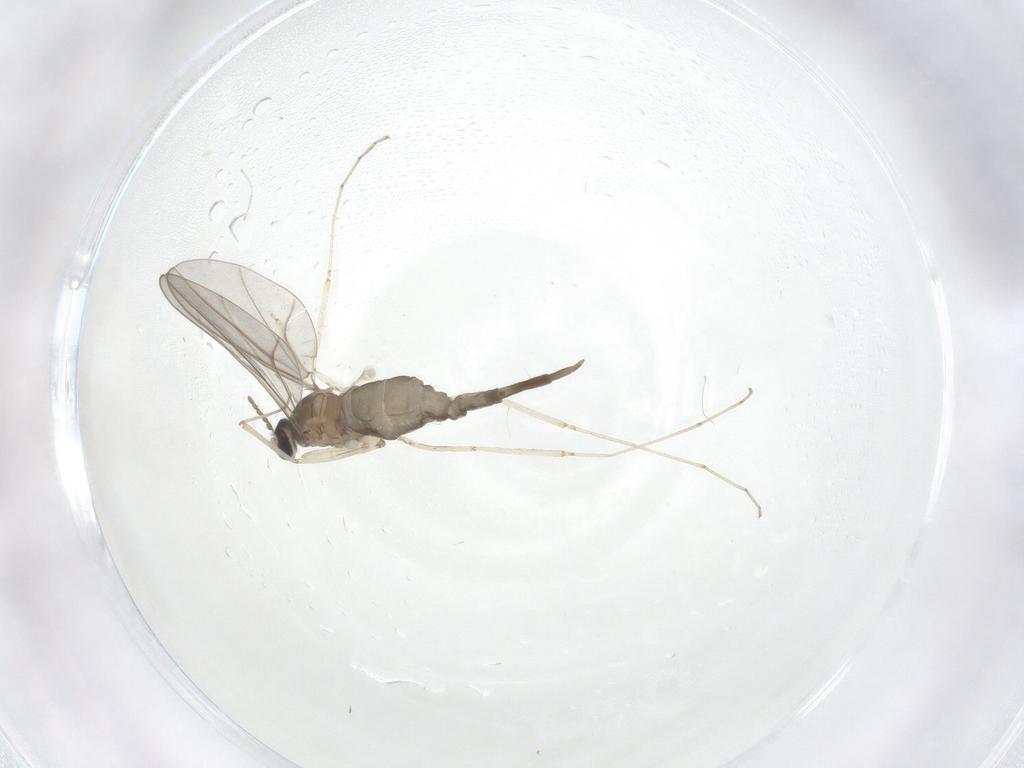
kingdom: Animalia
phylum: Arthropoda
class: Insecta
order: Diptera
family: Cecidomyiidae
